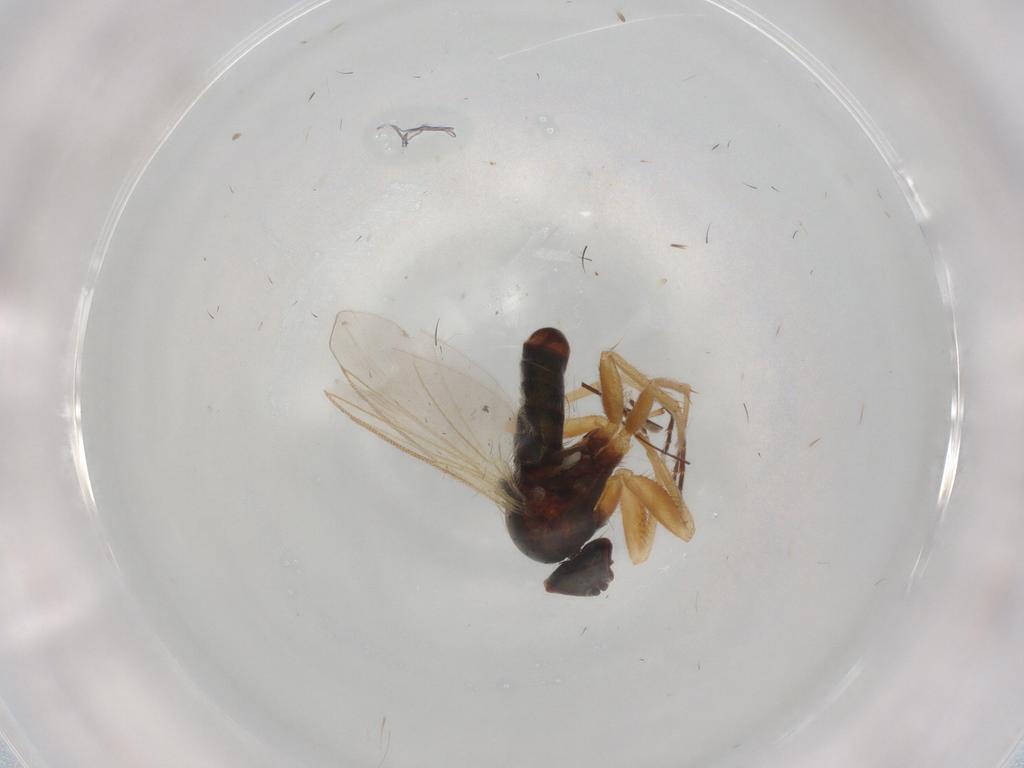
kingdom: Animalia
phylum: Arthropoda
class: Insecta
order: Diptera
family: Dolichopodidae
